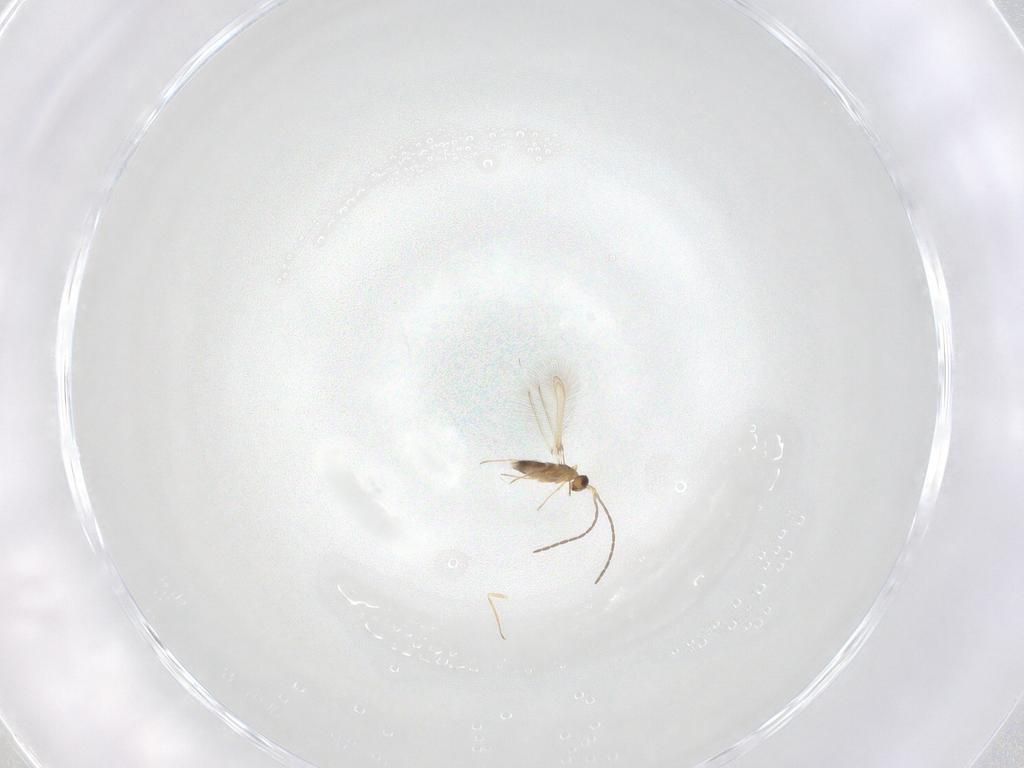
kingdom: Animalia
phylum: Arthropoda
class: Insecta
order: Hymenoptera
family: Mymaridae
